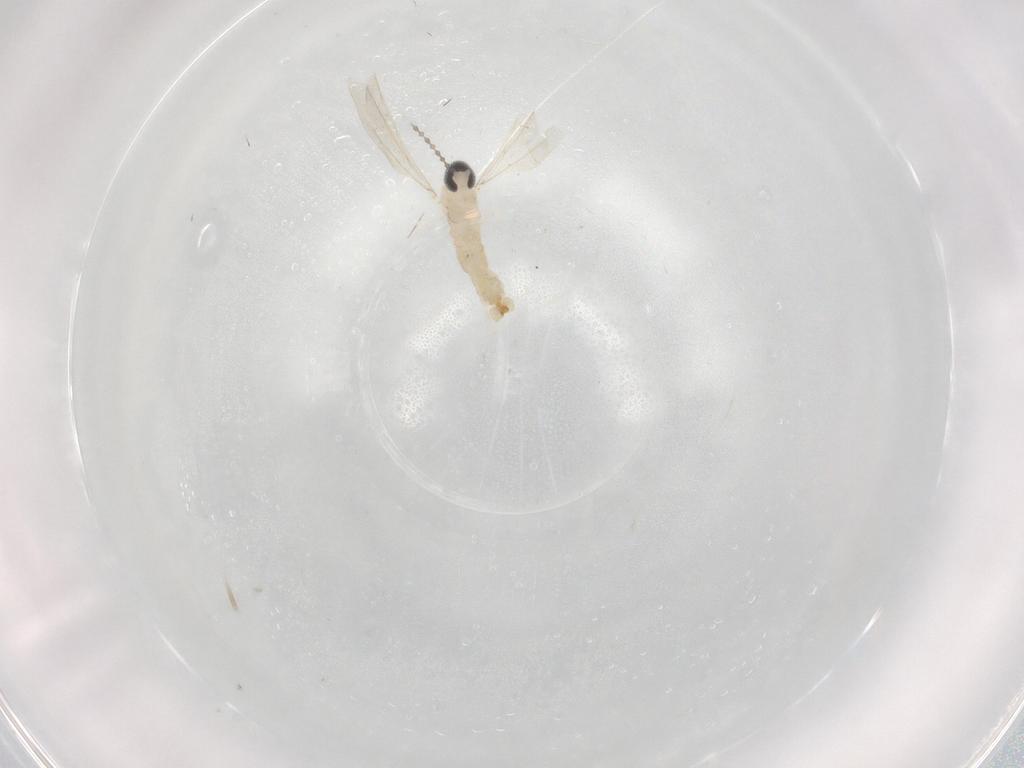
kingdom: Animalia
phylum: Arthropoda
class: Insecta
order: Diptera
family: Cecidomyiidae
